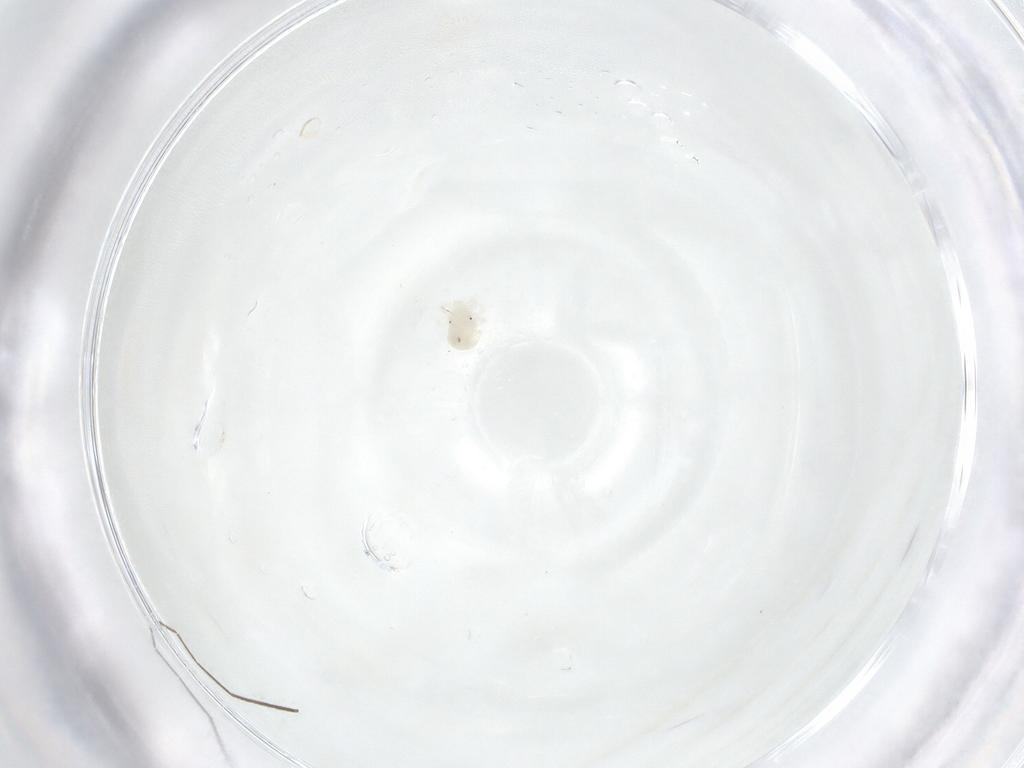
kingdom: Animalia
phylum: Arthropoda
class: Arachnida
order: Trombidiformes
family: Anystidae
